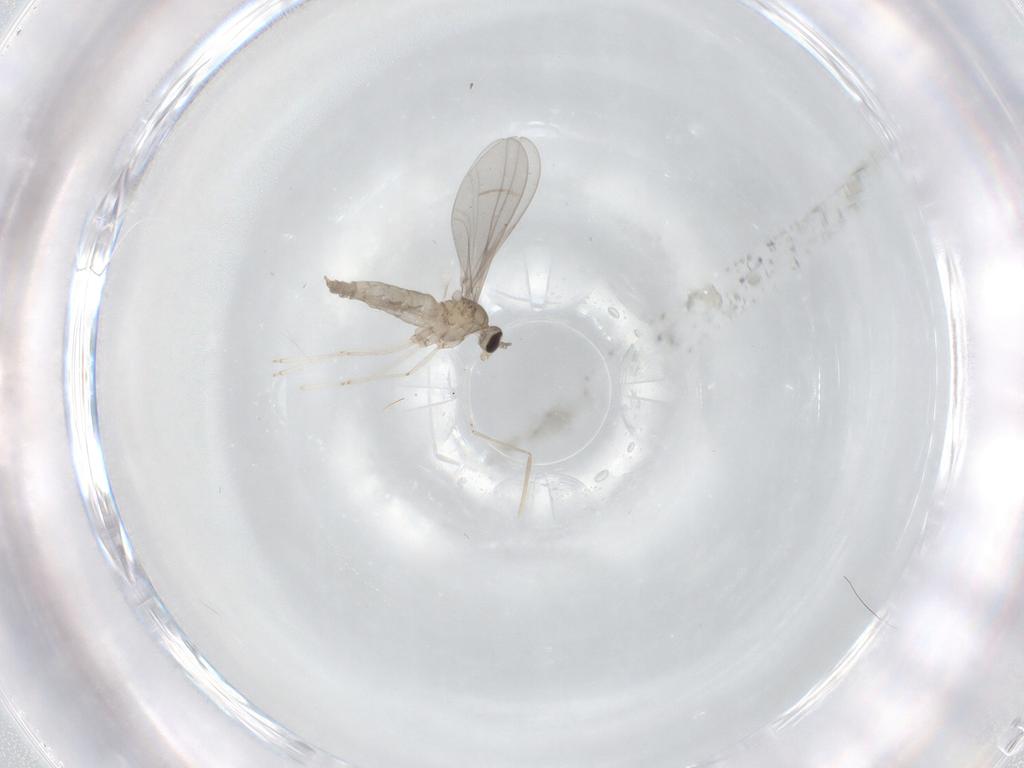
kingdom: Animalia
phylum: Arthropoda
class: Insecta
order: Diptera
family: Cecidomyiidae
